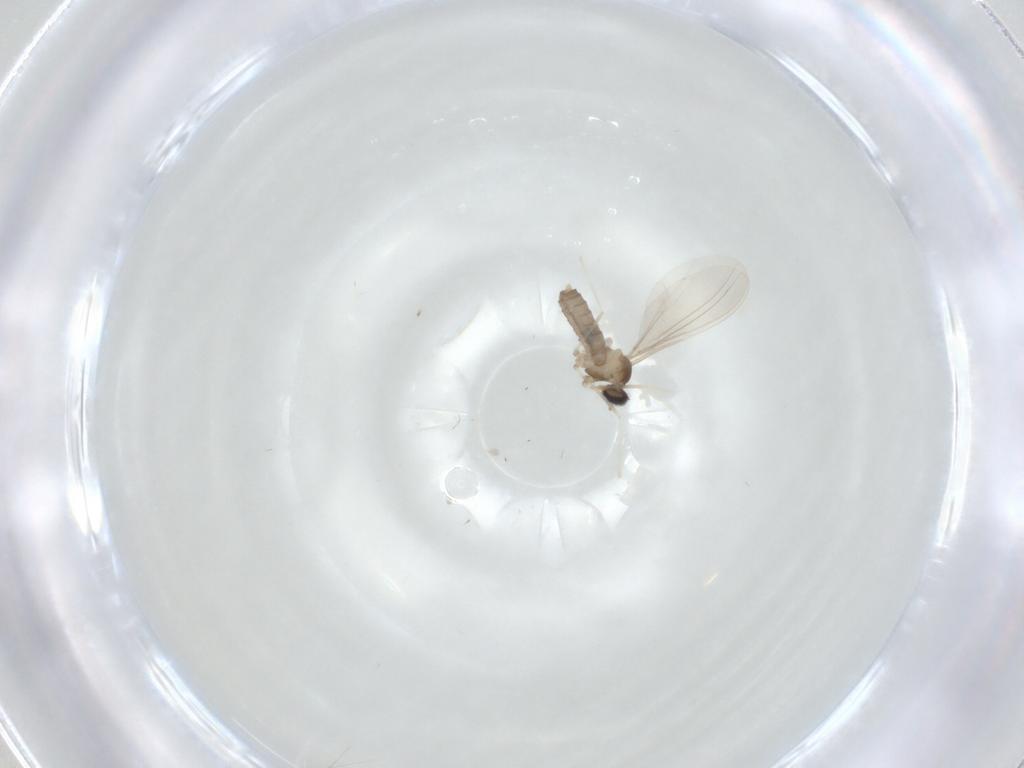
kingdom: Animalia
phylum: Arthropoda
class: Insecta
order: Diptera
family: Cecidomyiidae
